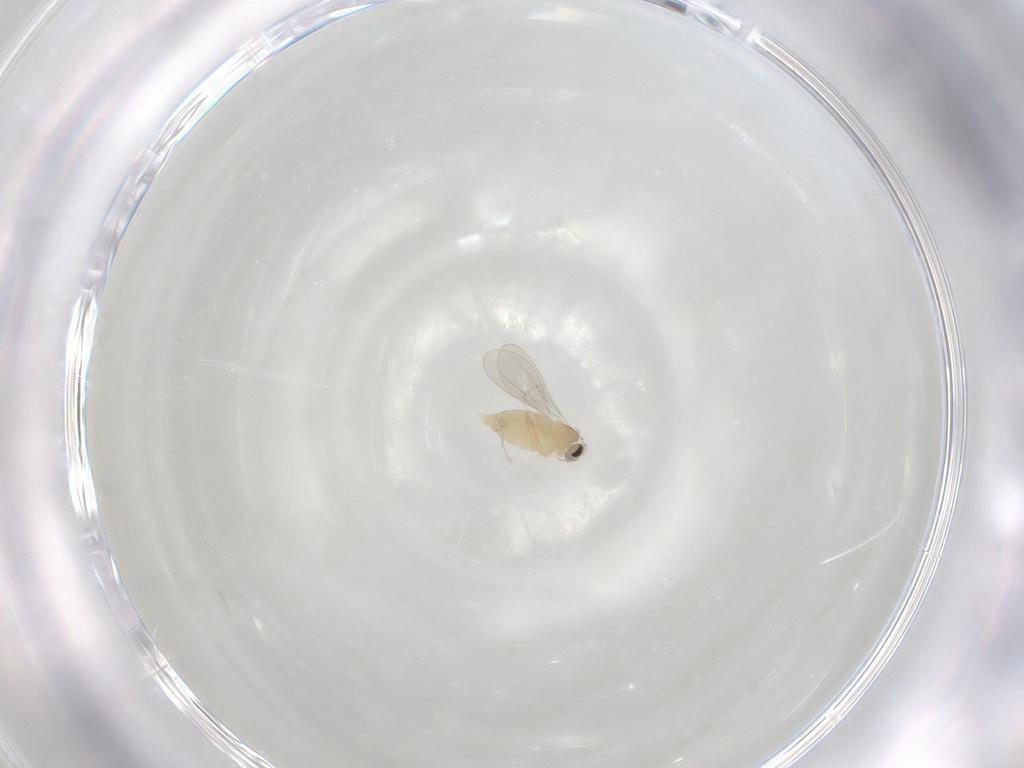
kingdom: Animalia
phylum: Arthropoda
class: Insecta
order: Diptera
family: Cecidomyiidae
